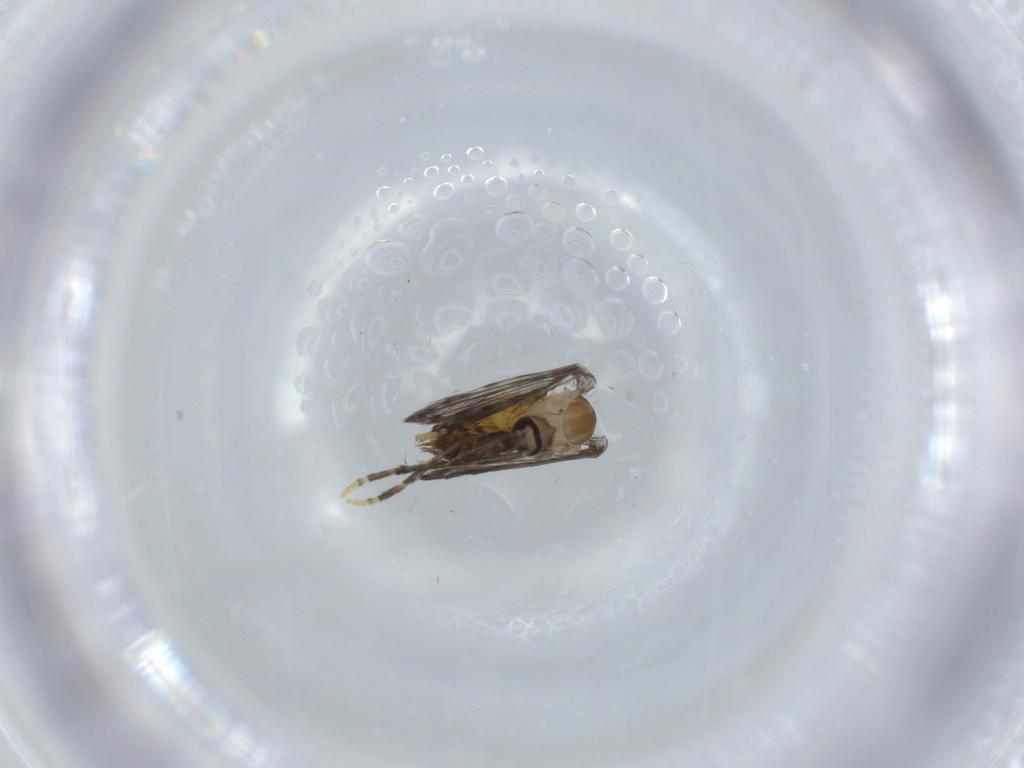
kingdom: Animalia
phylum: Arthropoda
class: Insecta
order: Diptera
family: Psychodidae
